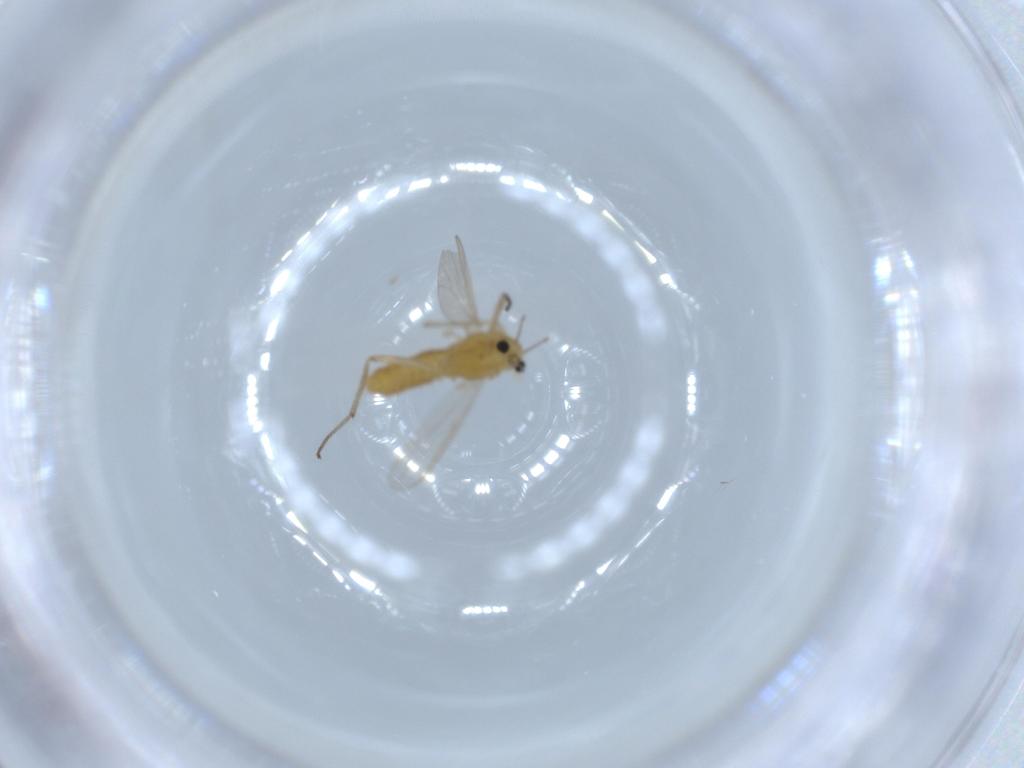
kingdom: Animalia
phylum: Arthropoda
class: Insecta
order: Diptera
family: Chironomidae
